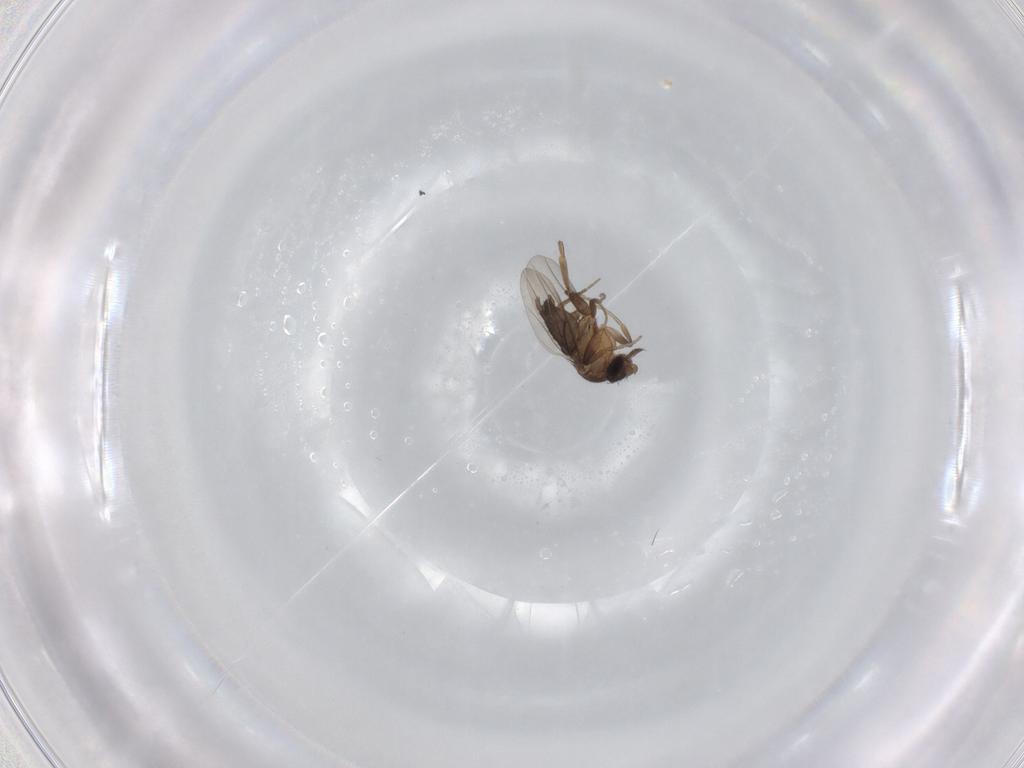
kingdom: Animalia
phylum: Arthropoda
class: Insecta
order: Diptera
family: Phoridae
